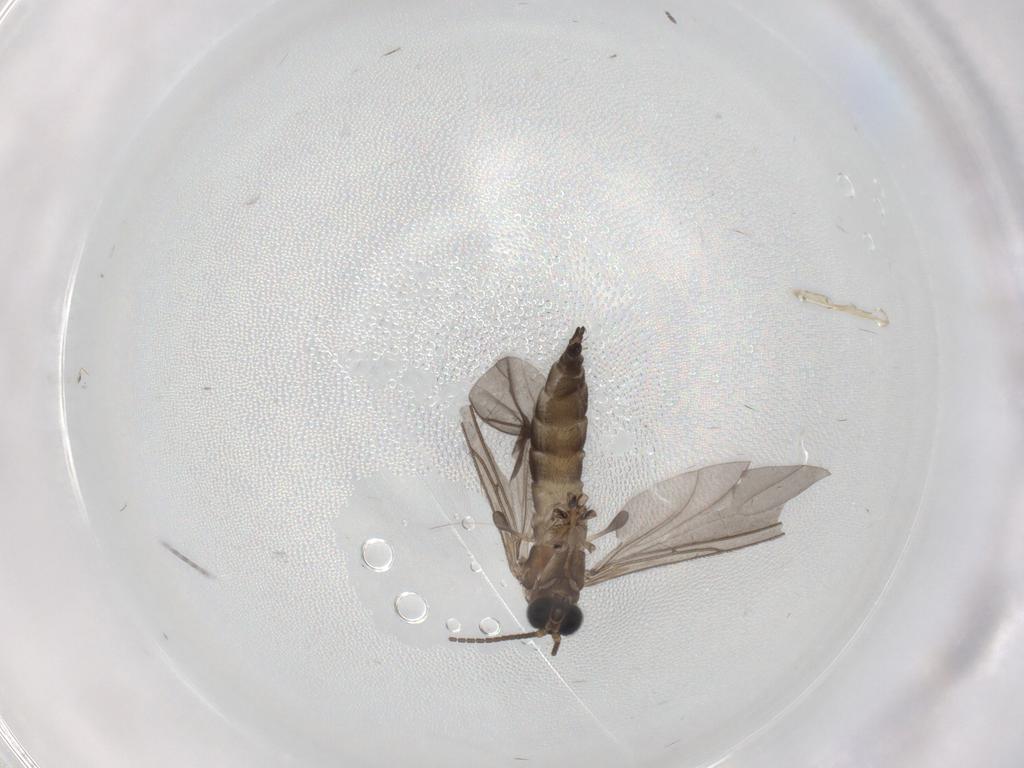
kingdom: Animalia
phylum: Arthropoda
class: Insecta
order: Diptera
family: Sciaridae
